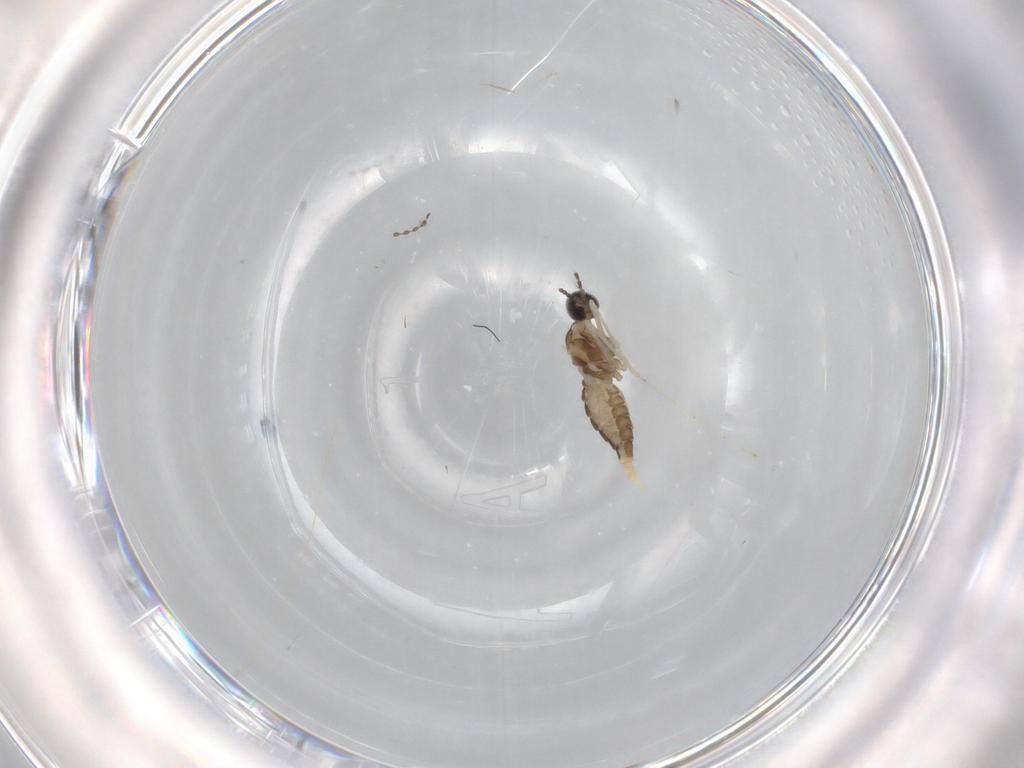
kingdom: Animalia
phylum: Arthropoda
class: Insecta
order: Diptera
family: Cecidomyiidae
